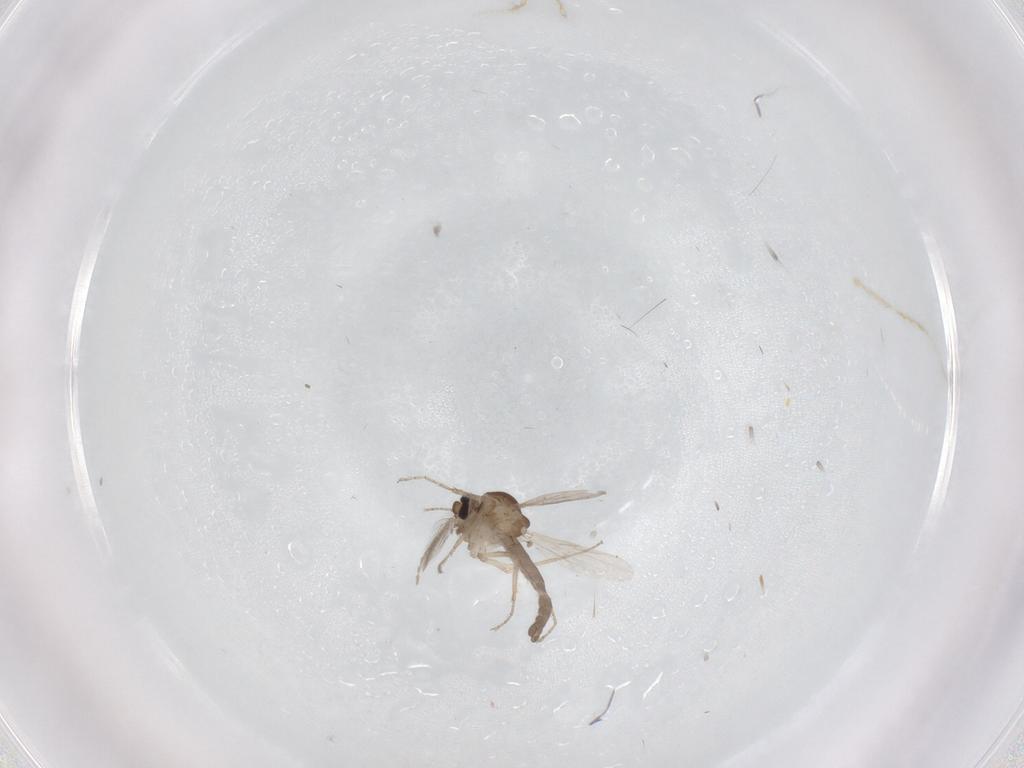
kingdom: Animalia
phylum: Arthropoda
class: Insecta
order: Diptera
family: Ceratopogonidae
